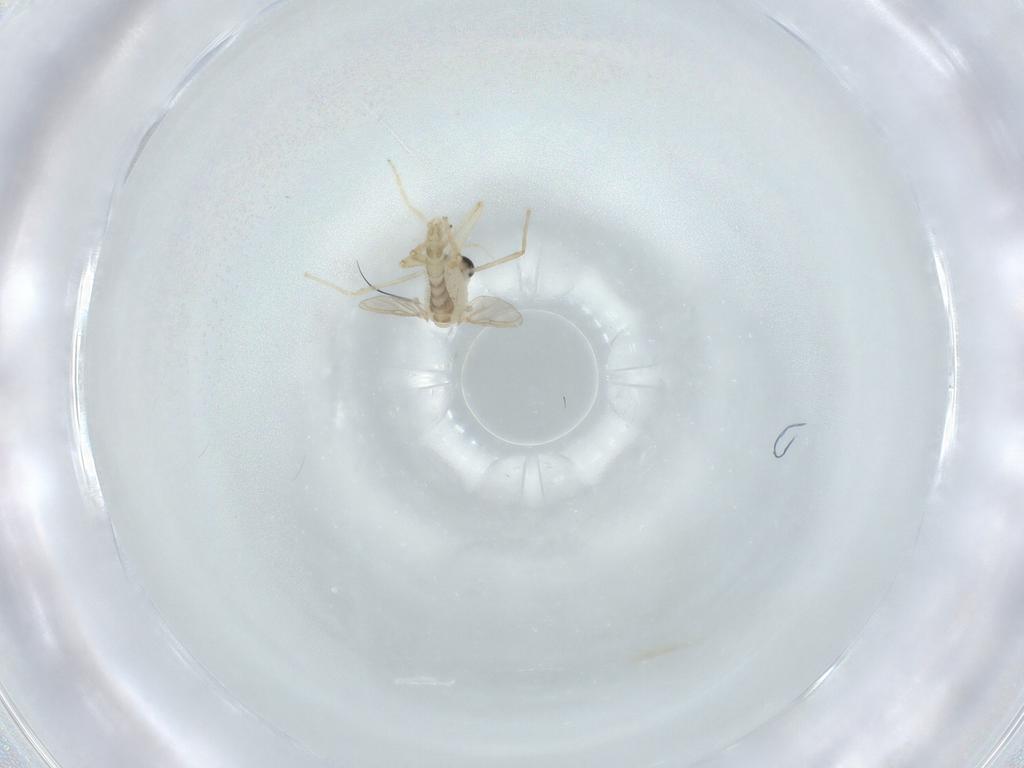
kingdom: Animalia
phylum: Arthropoda
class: Insecta
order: Diptera
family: Chironomidae
